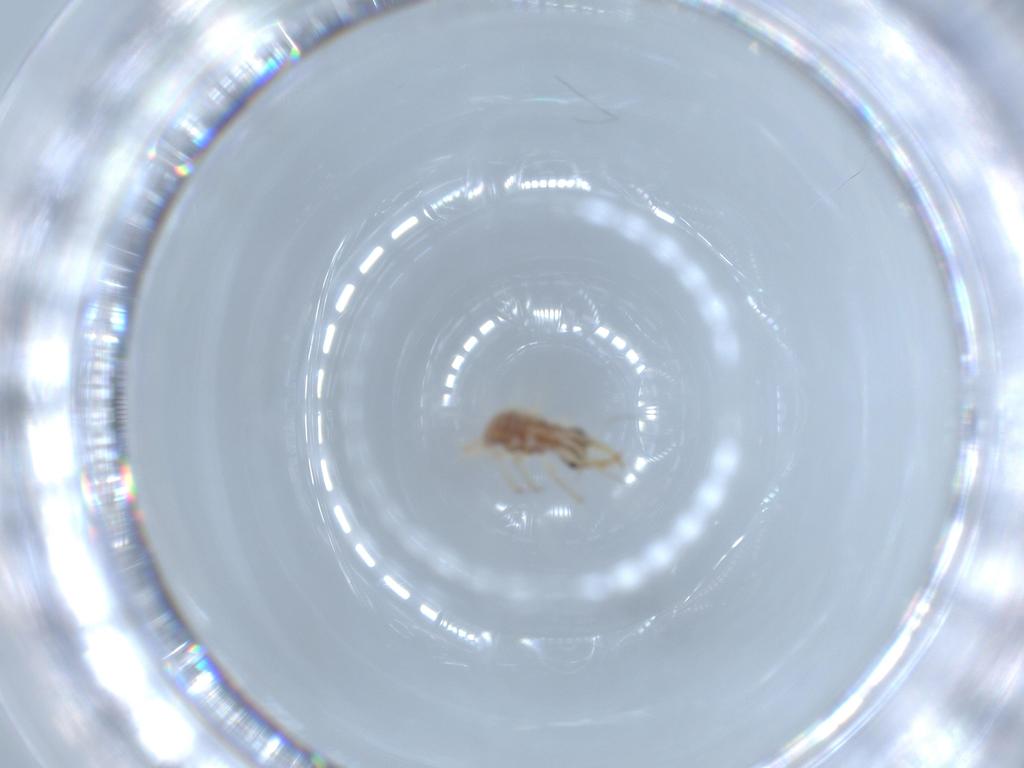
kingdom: Animalia
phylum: Arthropoda
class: Insecta
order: Neuroptera
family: Chrysopidae
